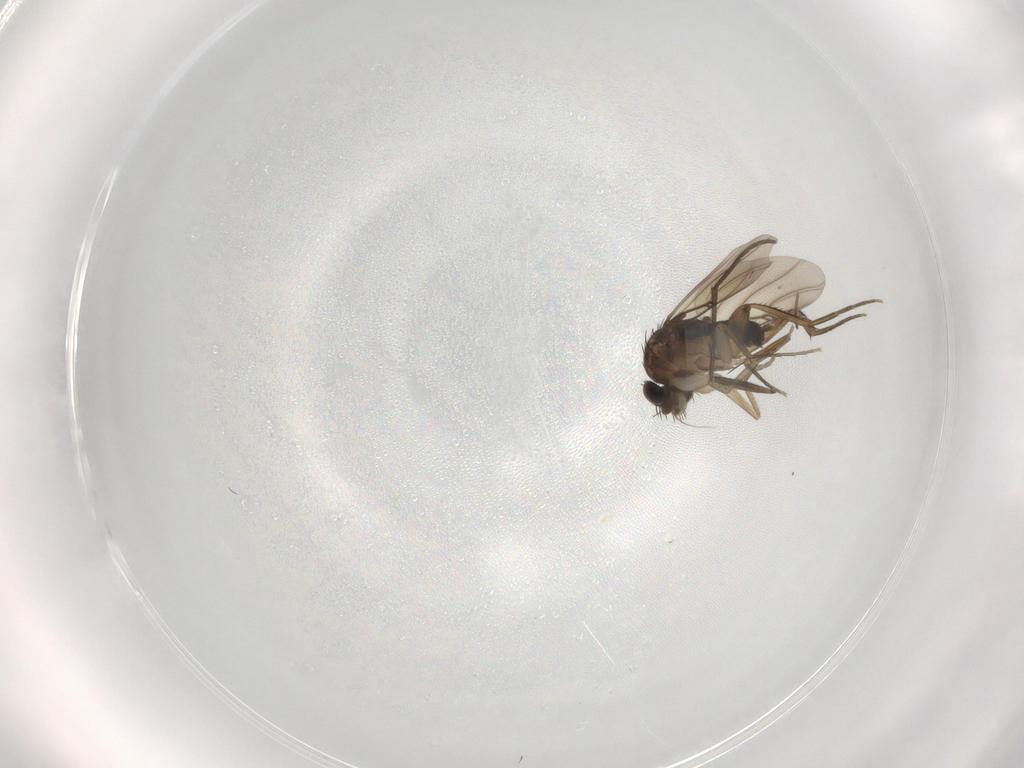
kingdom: Animalia
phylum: Arthropoda
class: Insecta
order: Diptera
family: Sciaridae
